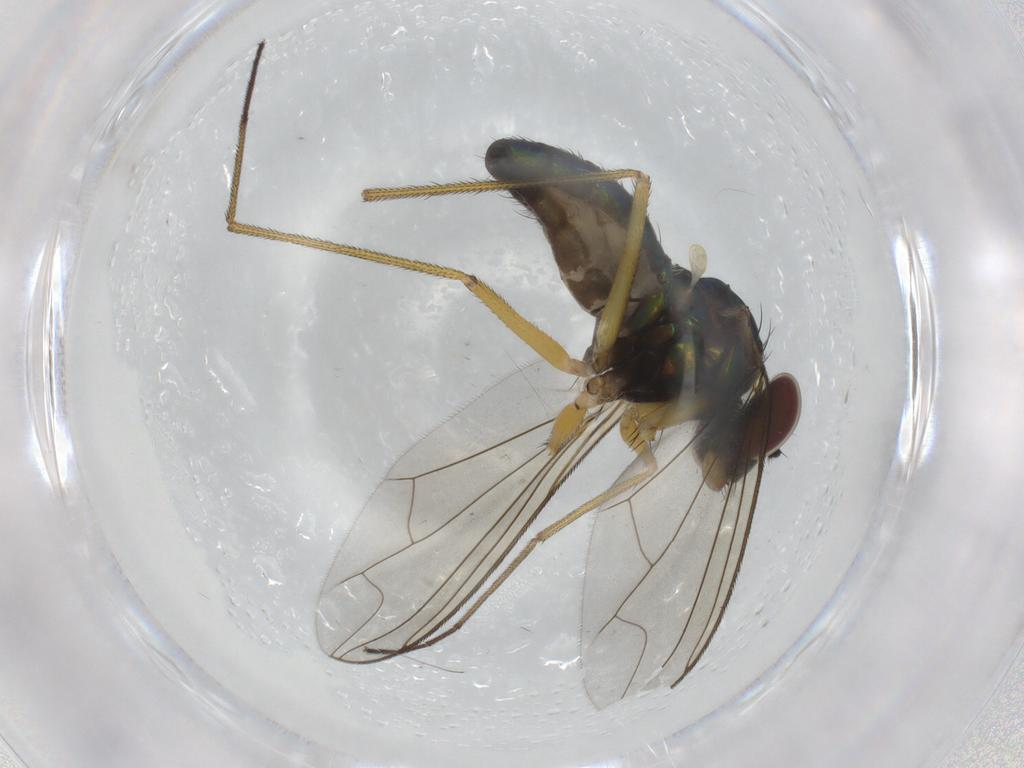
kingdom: Animalia
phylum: Arthropoda
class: Insecta
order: Diptera
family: Dolichopodidae
